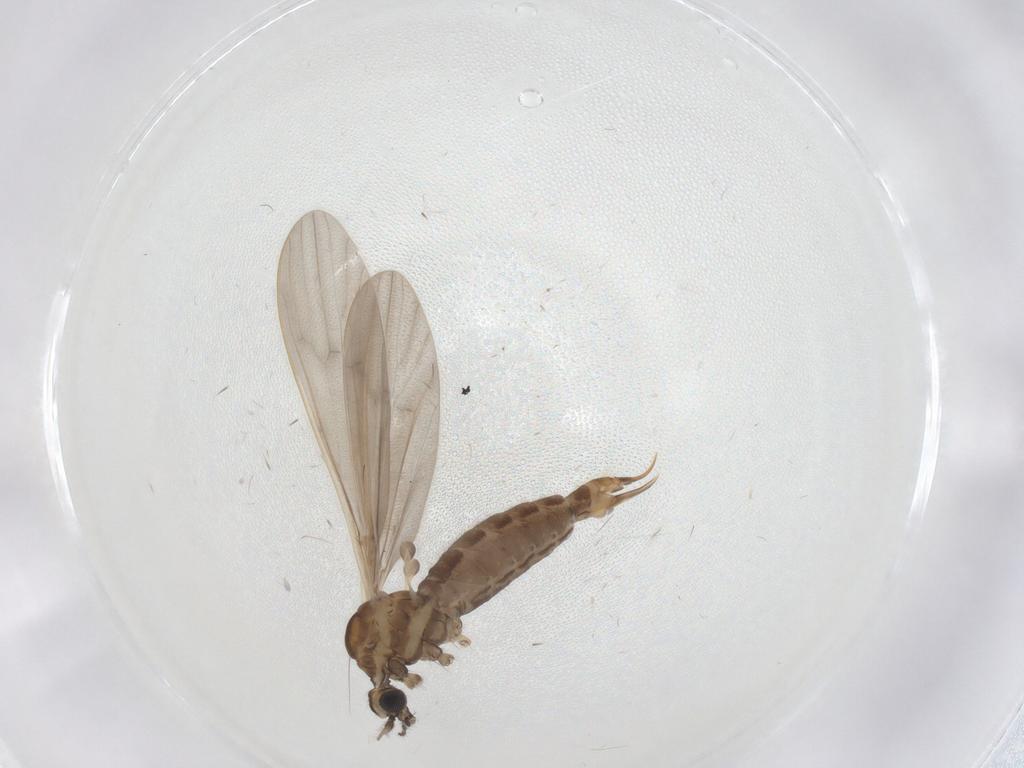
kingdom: Animalia
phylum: Arthropoda
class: Insecta
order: Diptera
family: Limoniidae
